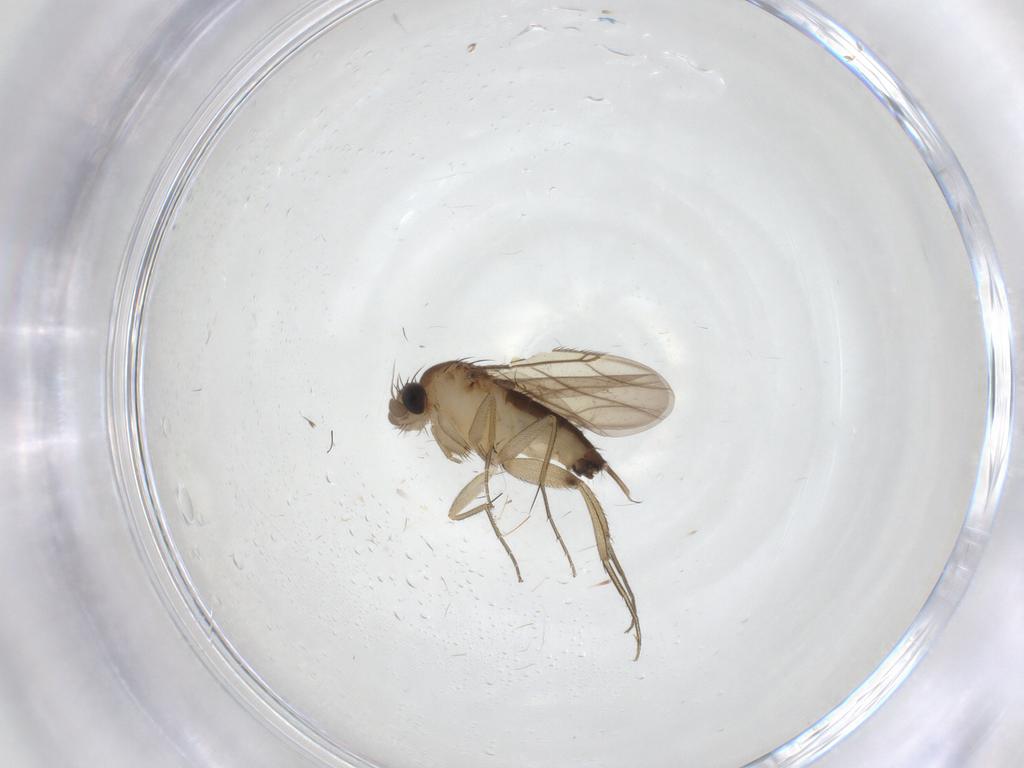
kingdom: Animalia
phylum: Arthropoda
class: Insecta
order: Diptera
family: Phoridae
